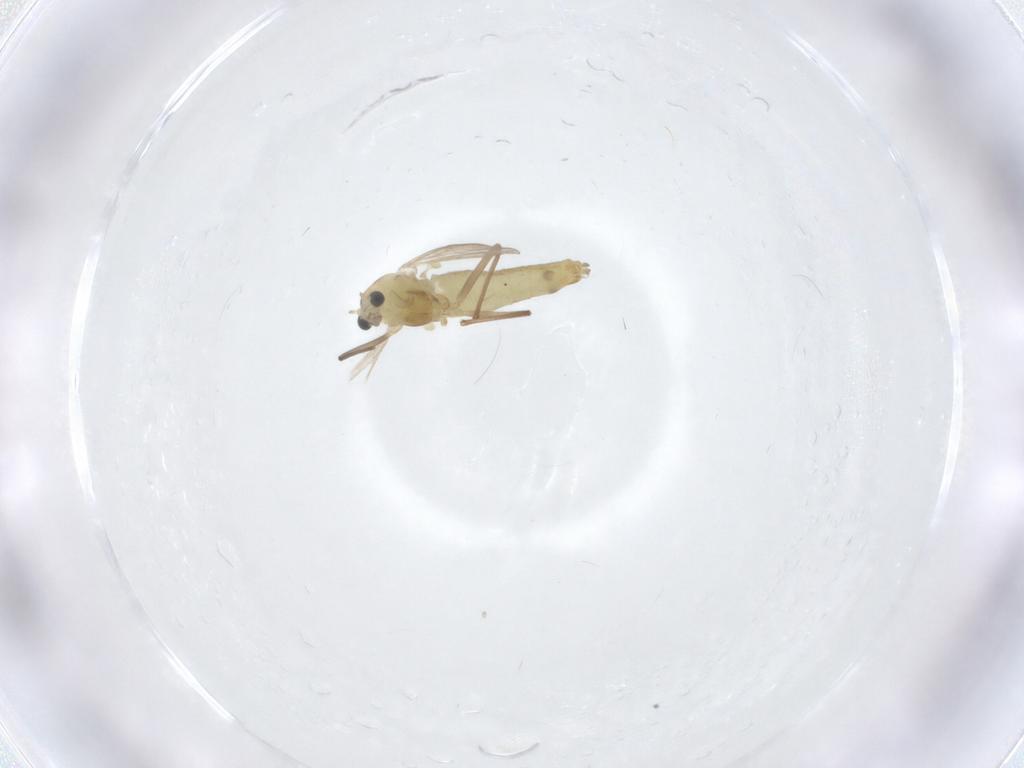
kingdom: Animalia
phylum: Arthropoda
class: Insecta
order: Diptera
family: Chironomidae
